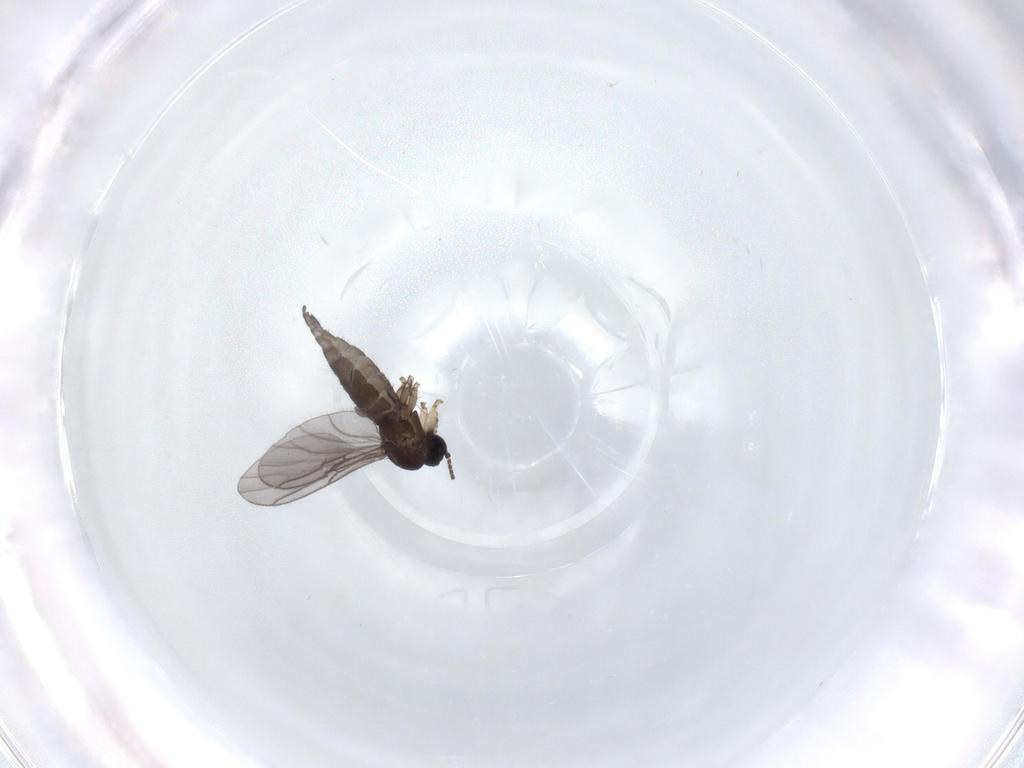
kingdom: Animalia
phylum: Arthropoda
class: Insecta
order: Diptera
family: Sciaridae
